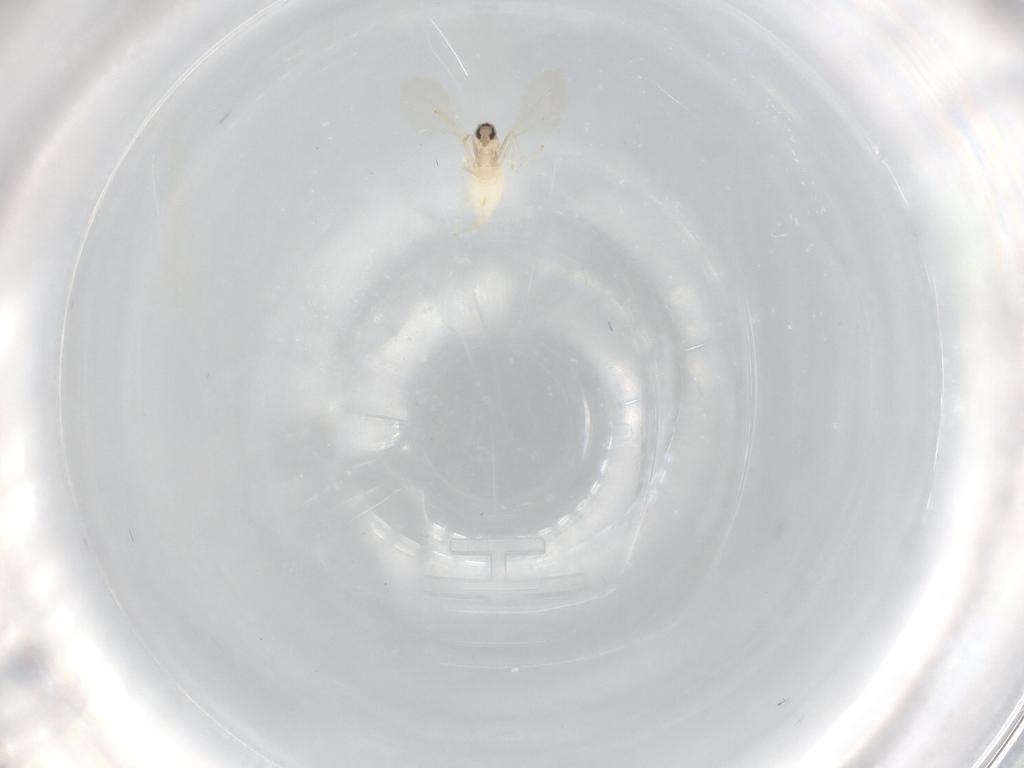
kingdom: Animalia
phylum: Arthropoda
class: Insecta
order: Diptera
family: Cecidomyiidae
